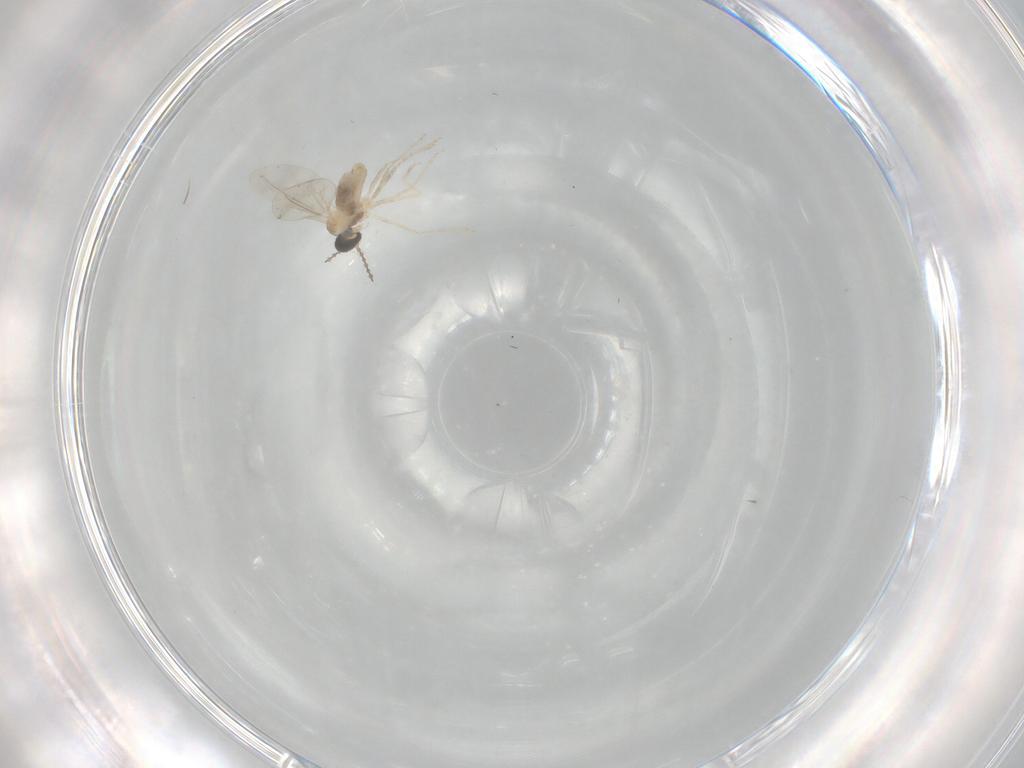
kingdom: Animalia
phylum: Arthropoda
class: Insecta
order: Diptera
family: Cecidomyiidae
